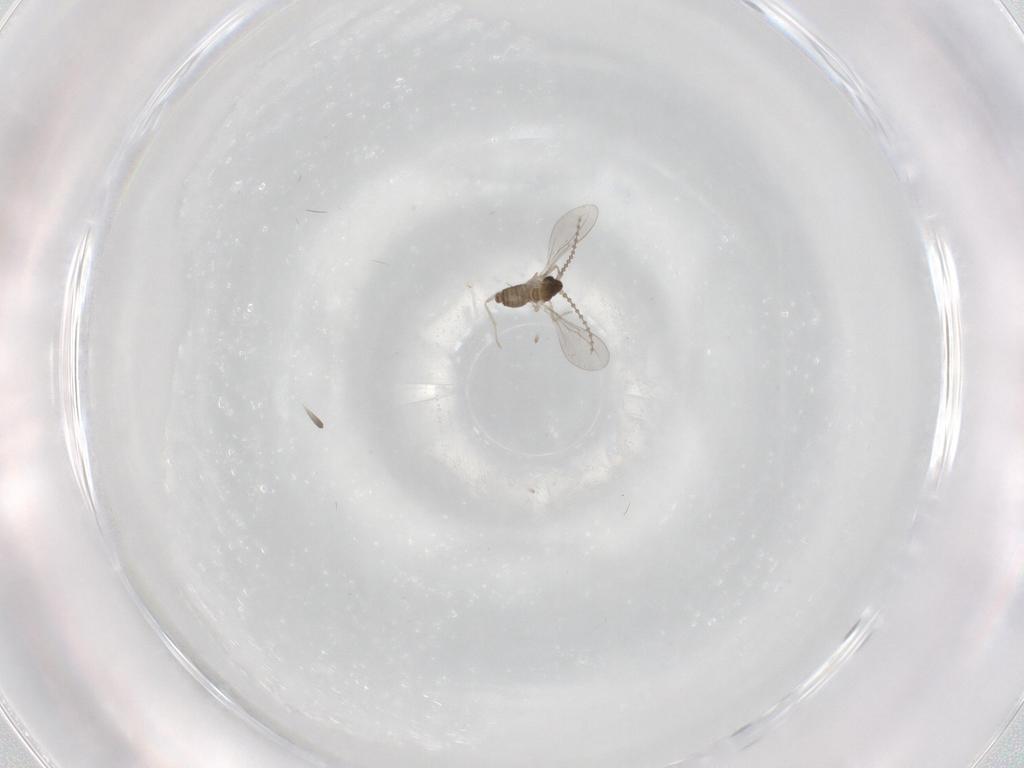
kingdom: Animalia
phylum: Arthropoda
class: Insecta
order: Diptera
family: Cecidomyiidae
